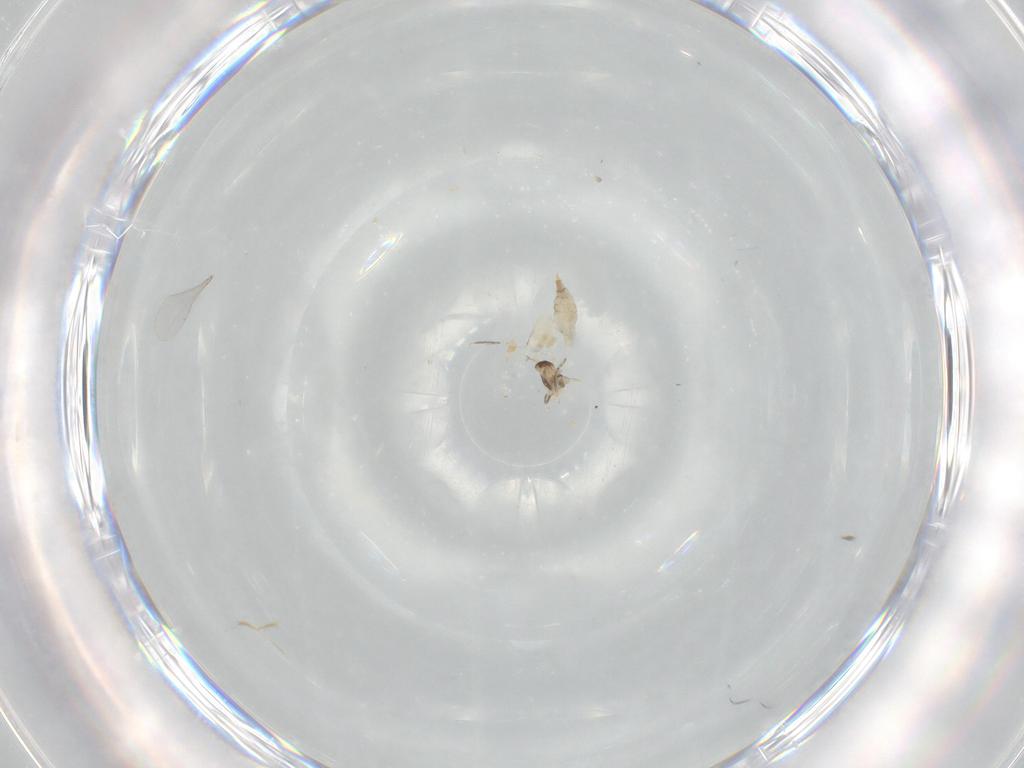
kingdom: Animalia
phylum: Arthropoda
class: Insecta
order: Diptera
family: Asilidae
